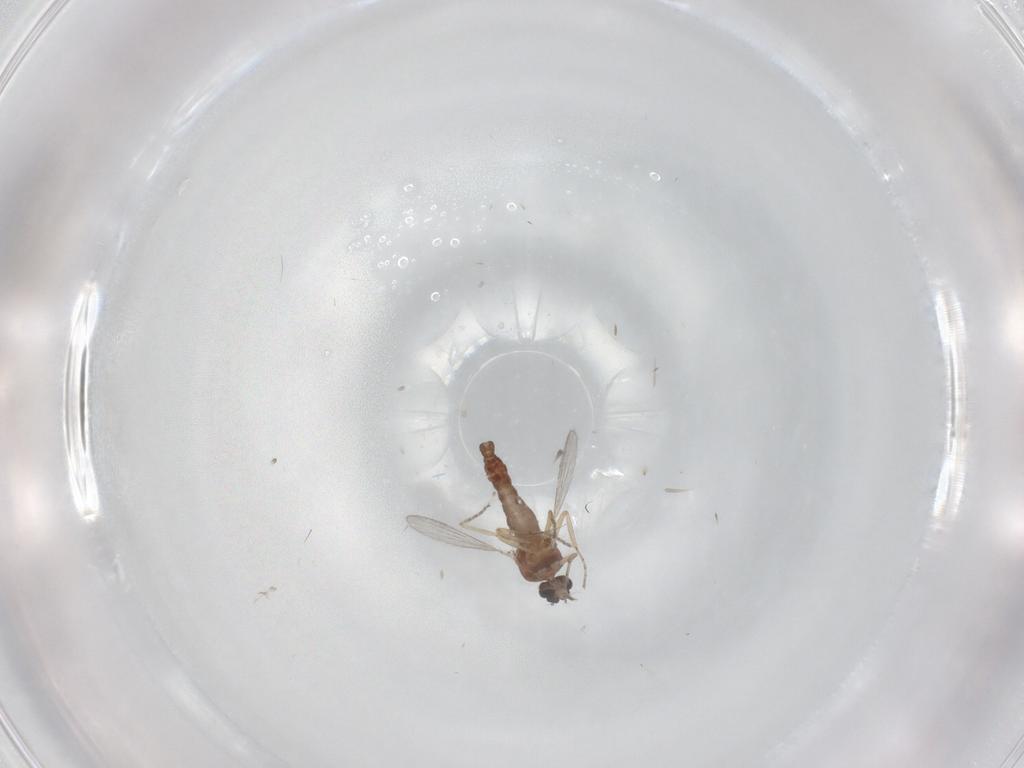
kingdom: Animalia
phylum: Arthropoda
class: Insecta
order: Diptera
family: Ceratopogonidae
